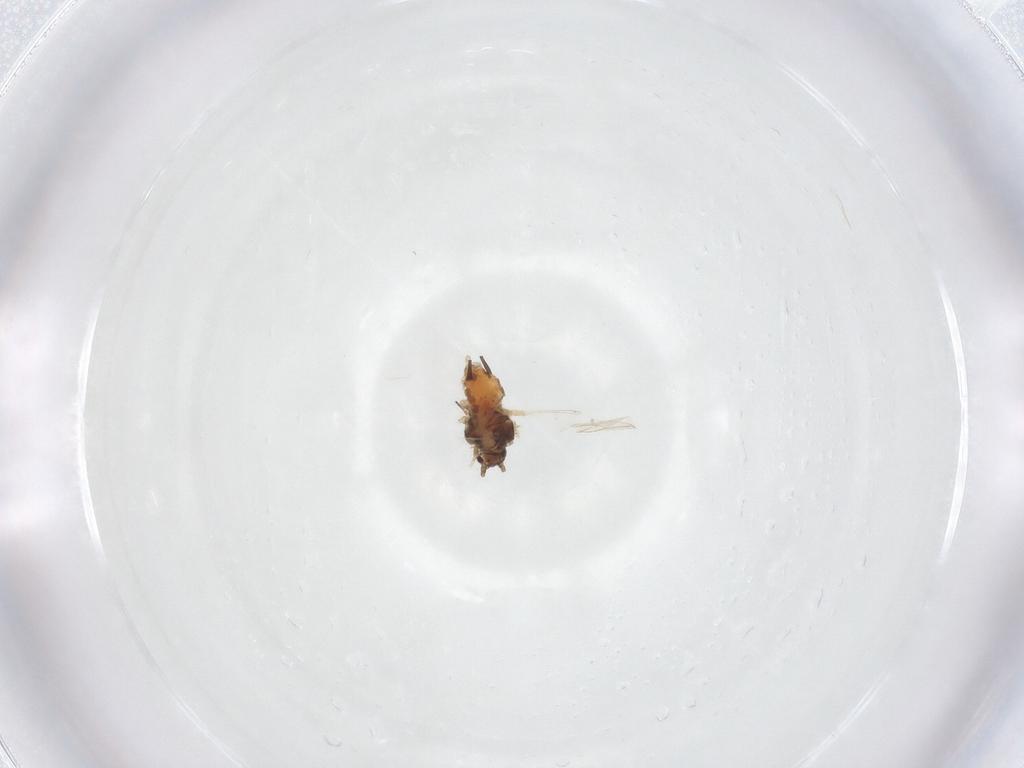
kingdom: Animalia
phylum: Arthropoda
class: Insecta
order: Hemiptera
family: Aphididae
